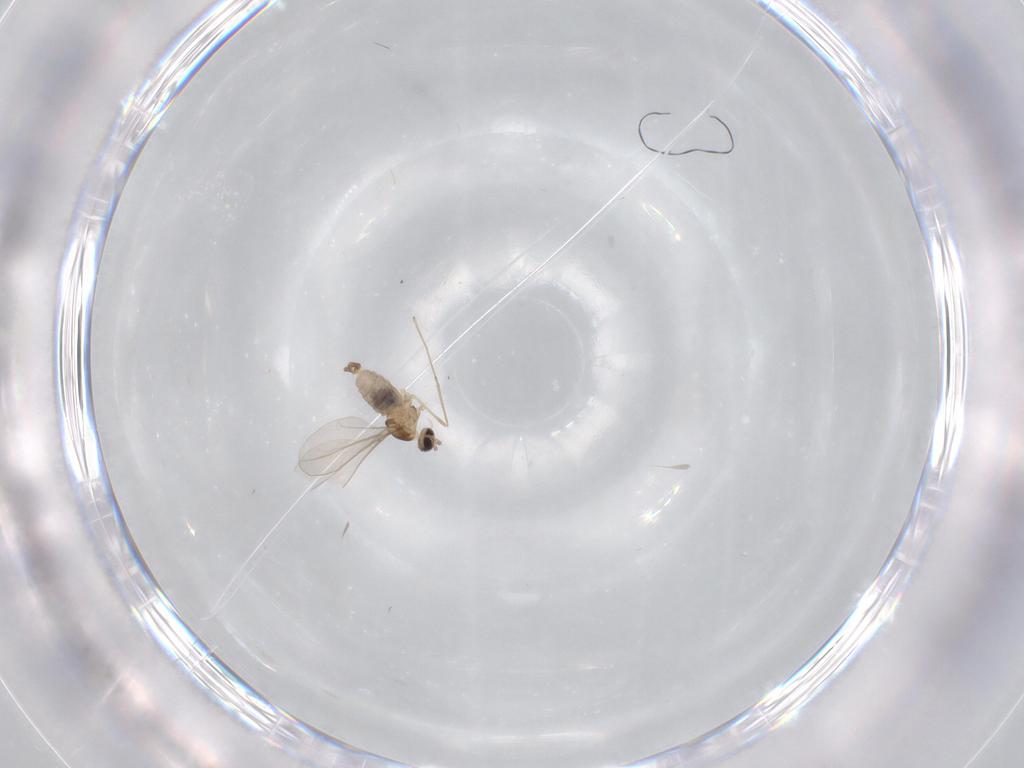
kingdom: Animalia
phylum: Arthropoda
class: Insecta
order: Diptera
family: Cecidomyiidae
